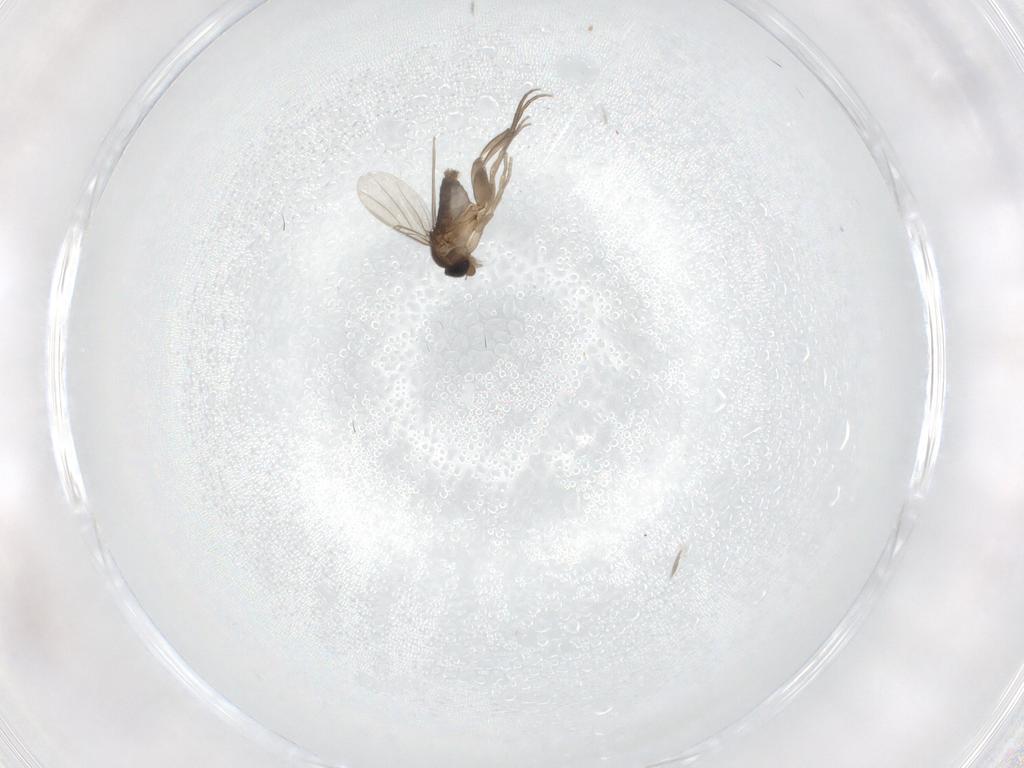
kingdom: Animalia
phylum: Arthropoda
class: Insecta
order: Diptera
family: Phoridae
